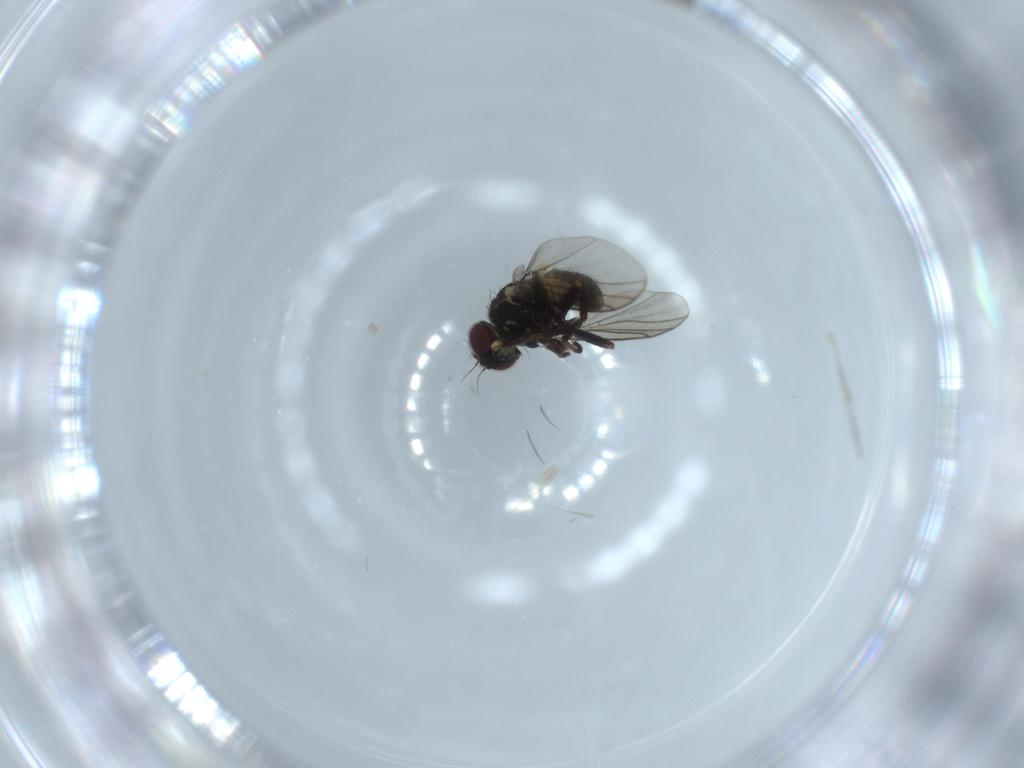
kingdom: Animalia
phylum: Arthropoda
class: Insecta
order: Diptera
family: Agromyzidae
